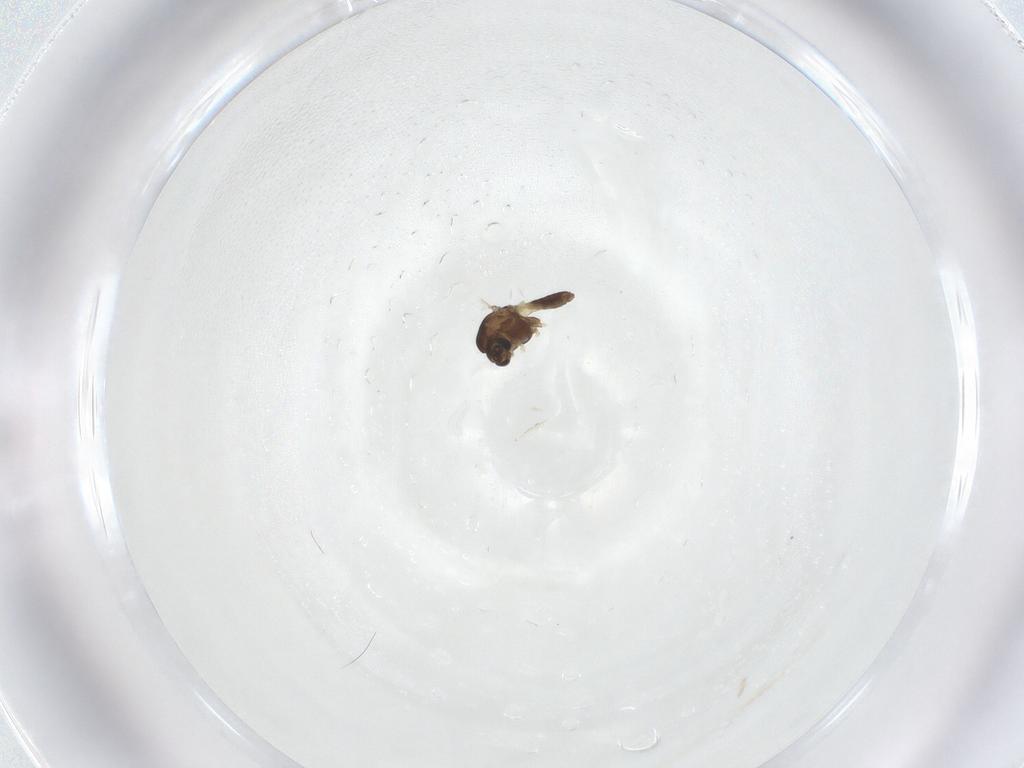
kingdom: Animalia
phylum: Arthropoda
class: Insecta
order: Diptera
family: Chironomidae
